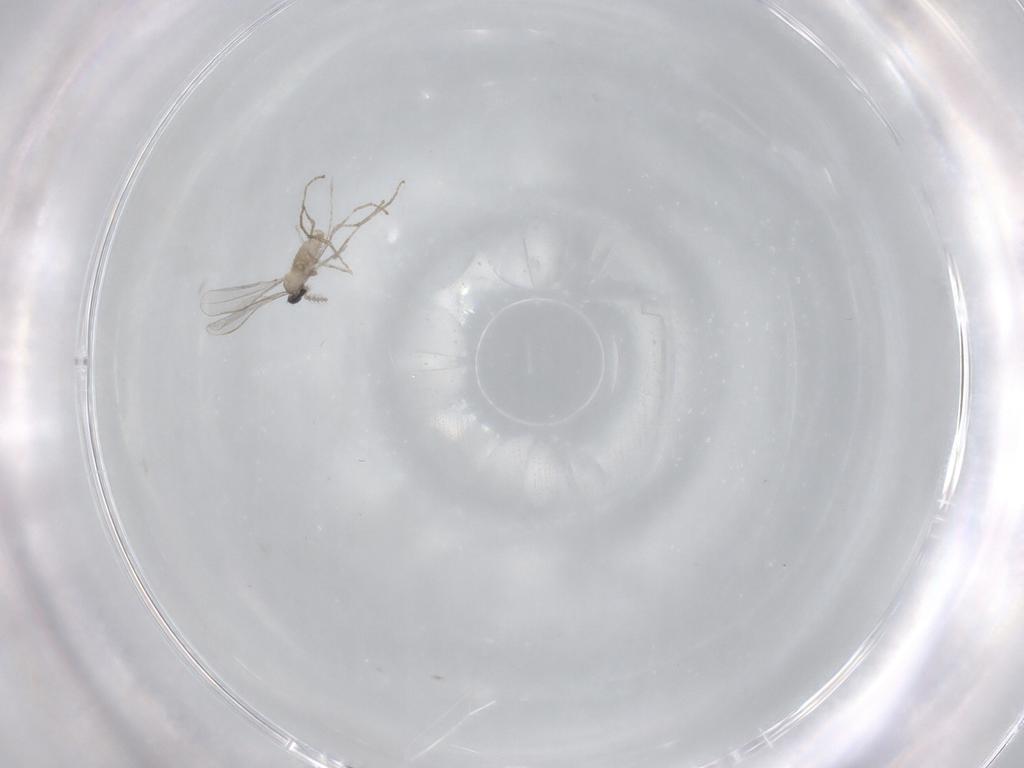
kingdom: Animalia
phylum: Arthropoda
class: Insecta
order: Diptera
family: Cecidomyiidae
